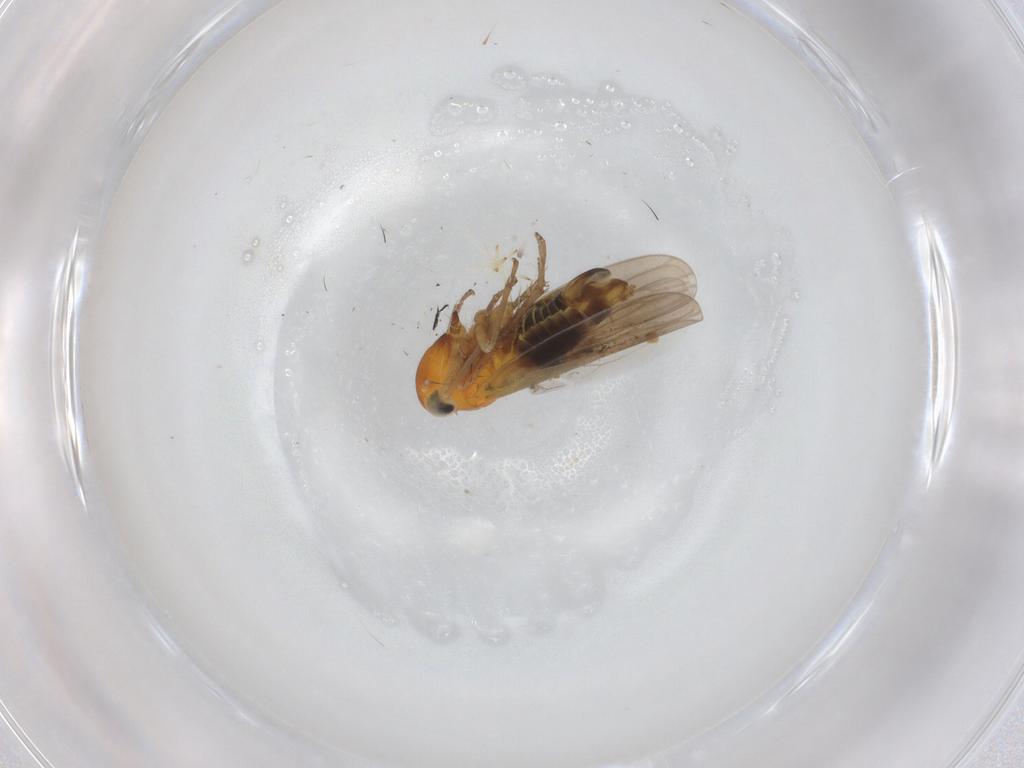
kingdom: Animalia
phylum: Arthropoda
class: Insecta
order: Hemiptera
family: Cicadellidae
